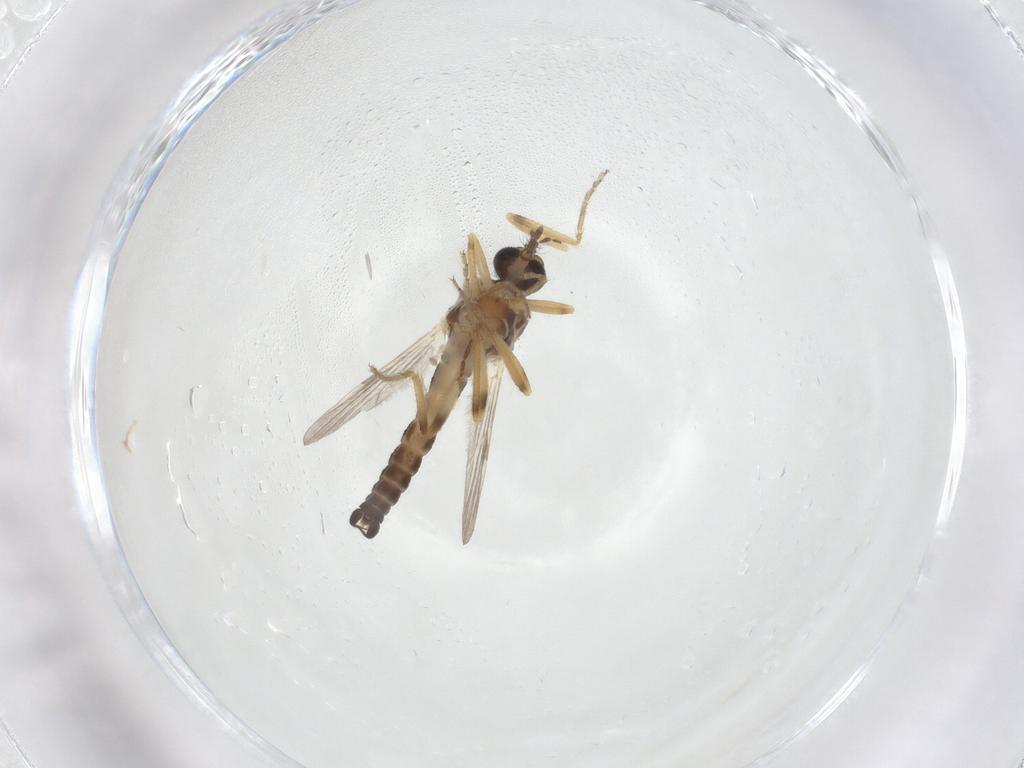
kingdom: Animalia
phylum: Arthropoda
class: Insecta
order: Diptera
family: Ceratopogonidae
